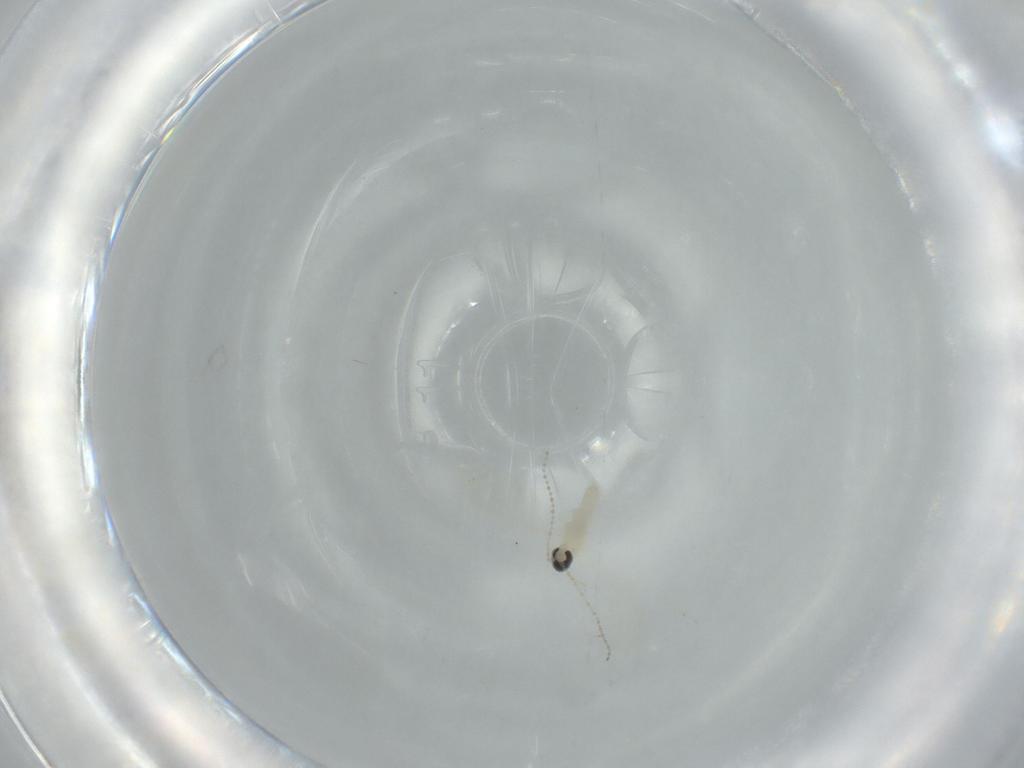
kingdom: Animalia
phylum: Arthropoda
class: Insecta
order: Diptera
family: Cecidomyiidae
